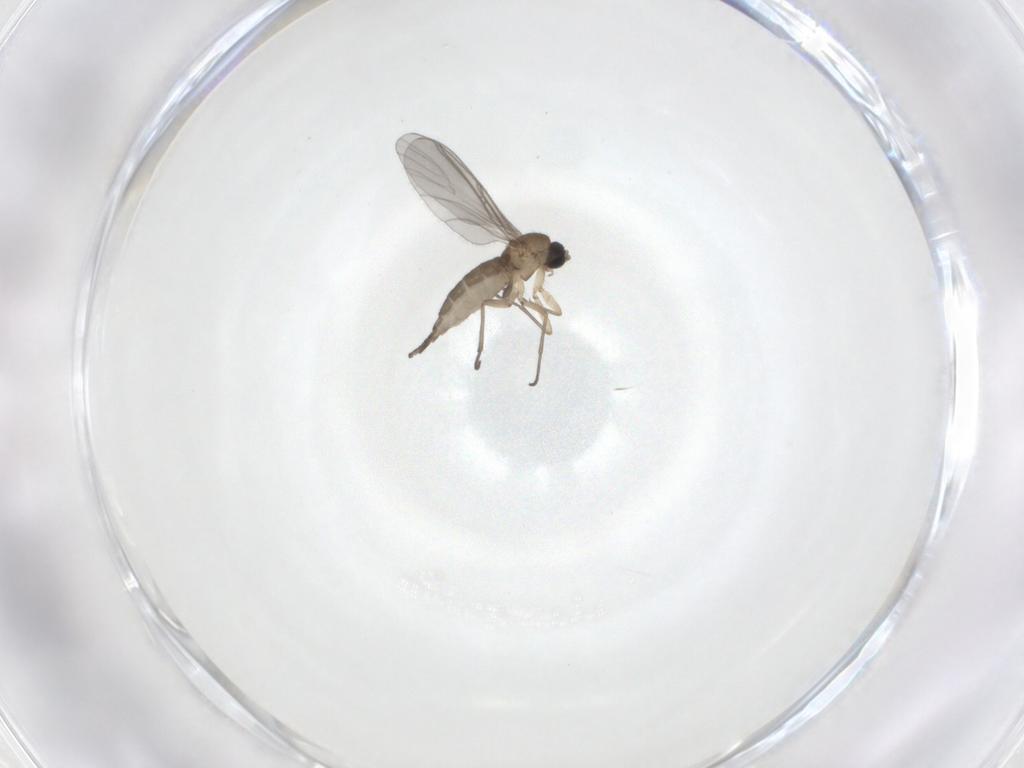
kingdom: Animalia
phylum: Arthropoda
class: Insecta
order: Diptera
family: Sciaridae
